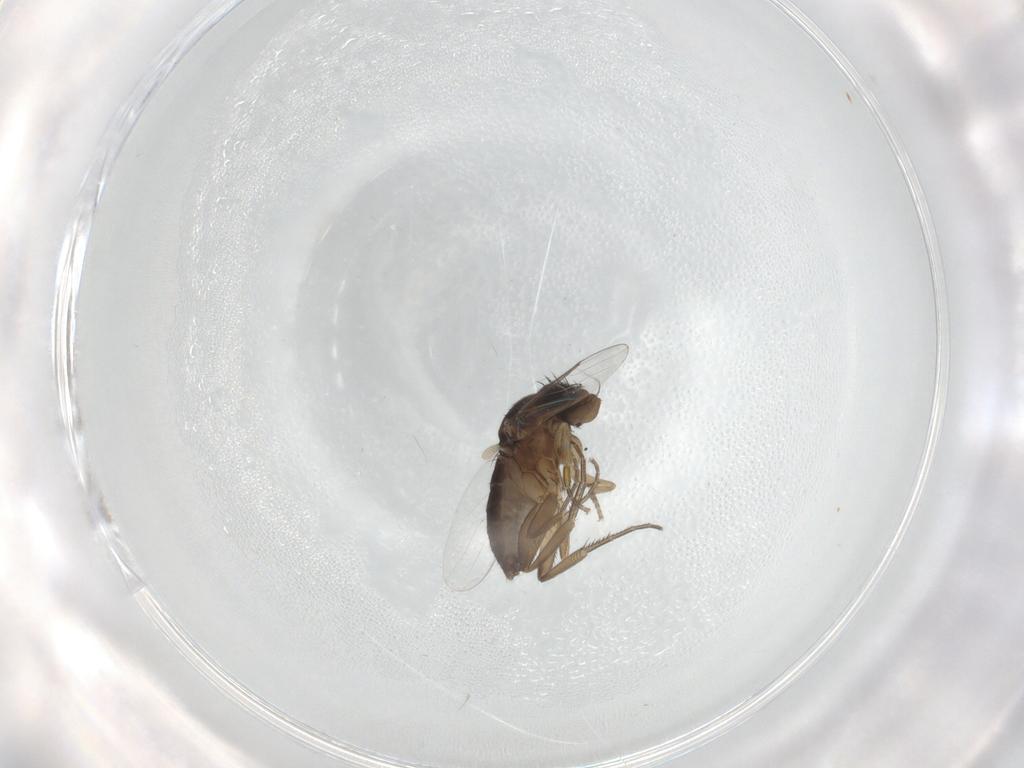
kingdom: Animalia
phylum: Arthropoda
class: Insecta
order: Diptera
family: Phoridae
